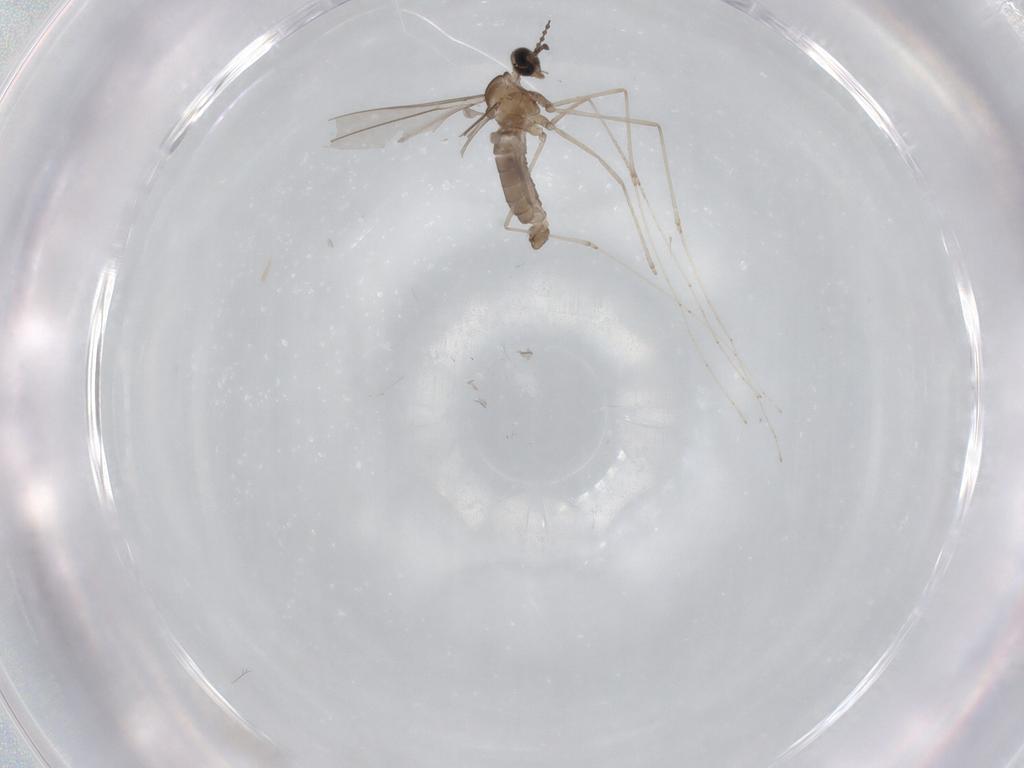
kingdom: Animalia
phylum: Arthropoda
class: Insecta
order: Diptera
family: Cecidomyiidae
